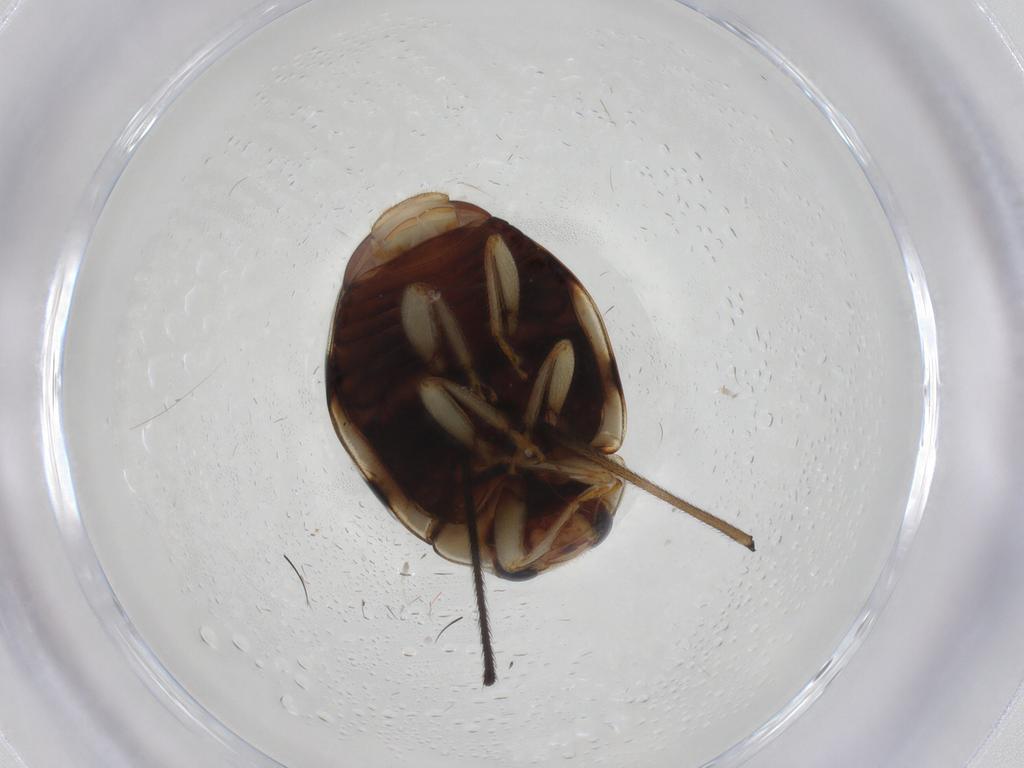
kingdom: Animalia
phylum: Arthropoda
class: Insecta
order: Coleoptera
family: Coccinellidae
